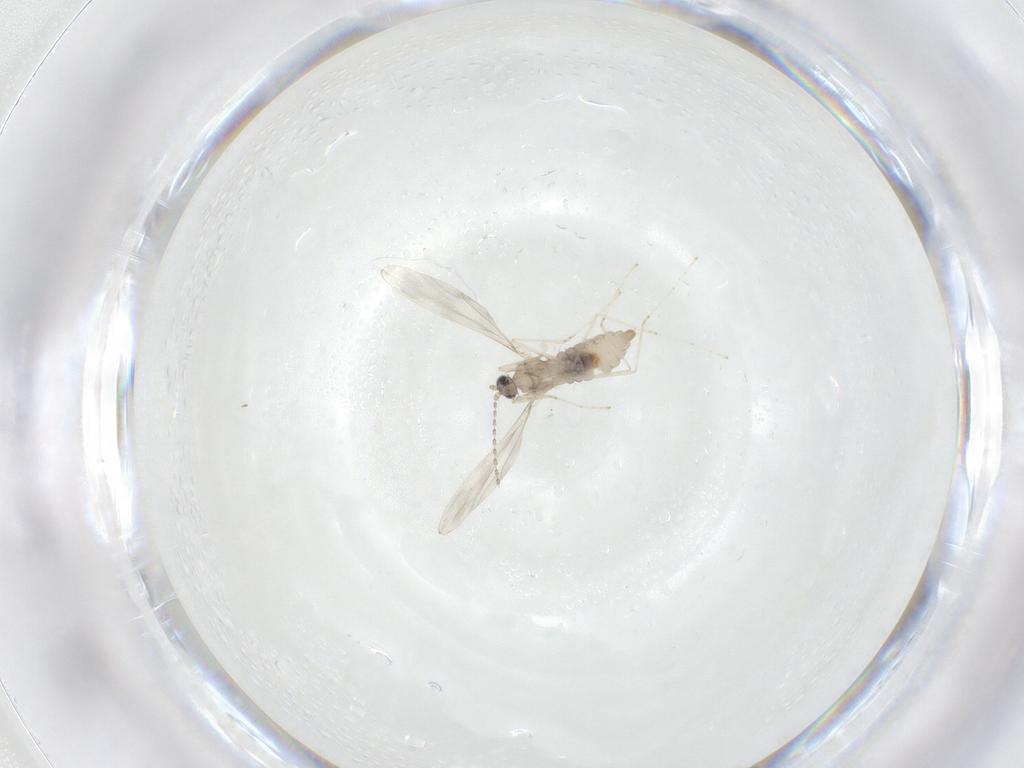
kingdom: Animalia
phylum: Arthropoda
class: Insecta
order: Diptera
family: Cecidomyiidae
